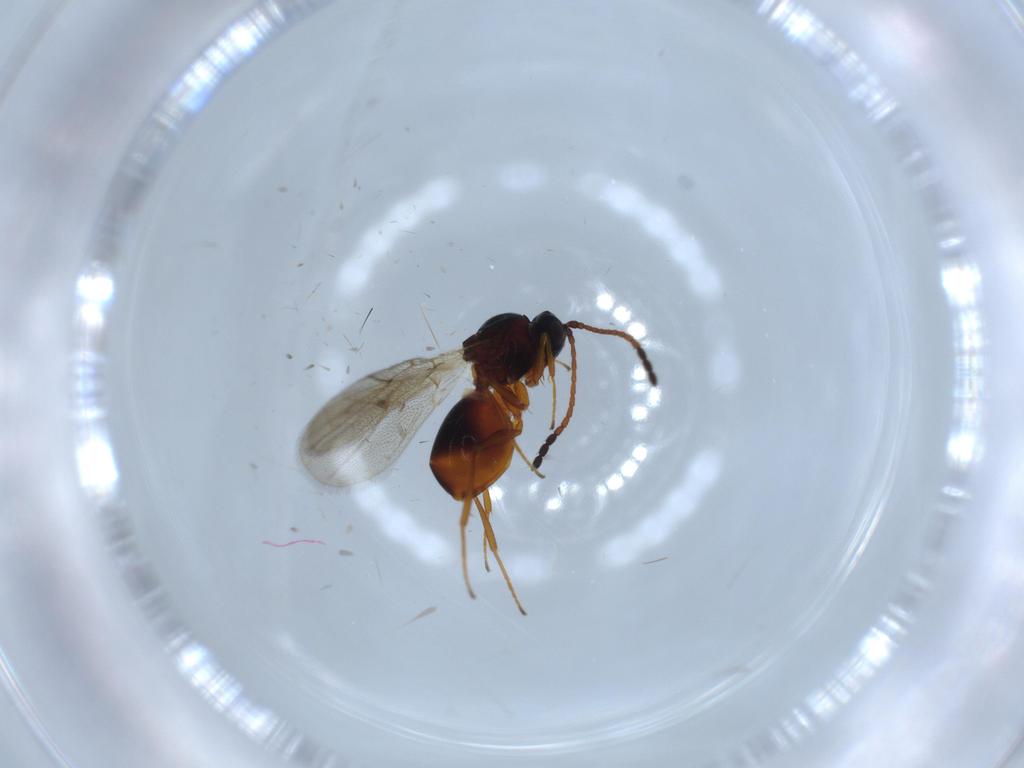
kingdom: Animalia
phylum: Arthropoda
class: Insecta
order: Hymenoptera
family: Figitidae
